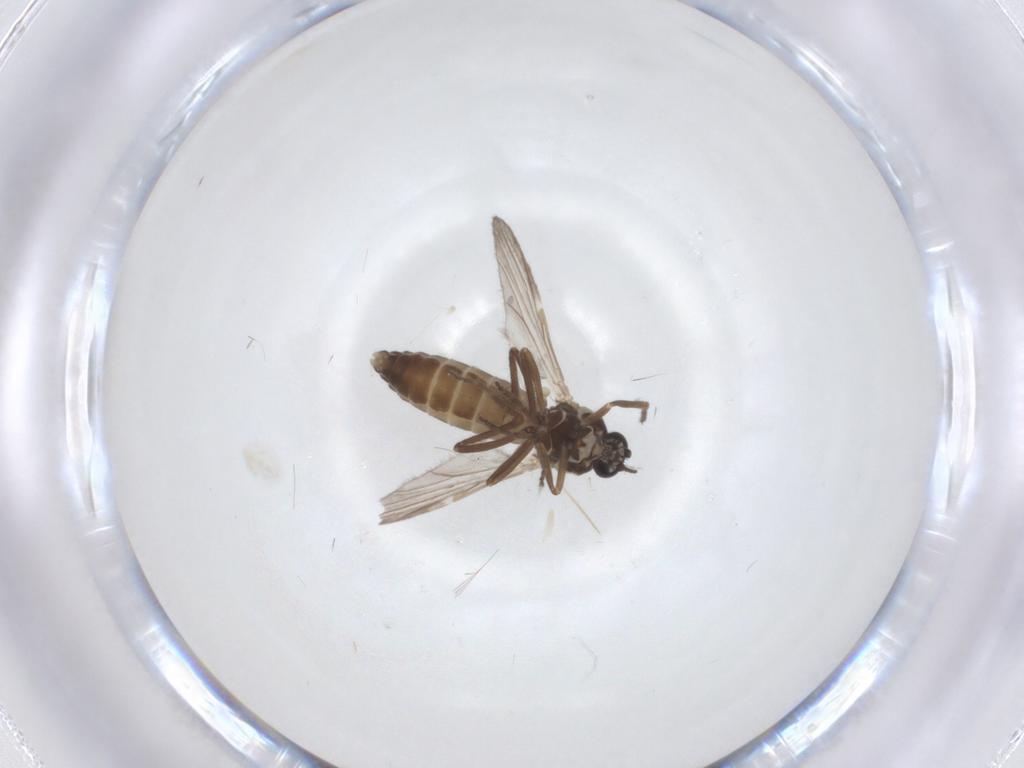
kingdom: Animalia
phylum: Arthropoda
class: Insecta
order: Diptera
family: Ceratopogonidae
